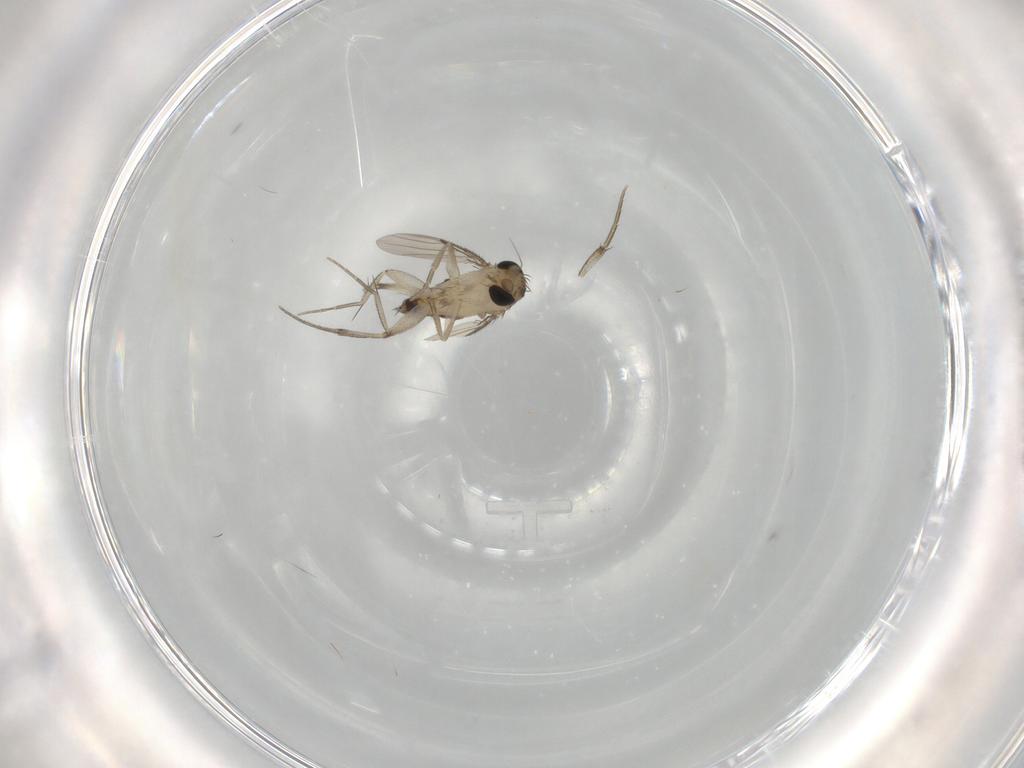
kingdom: Animalia
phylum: Arthropoda
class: Insecta
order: Diptera
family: Phoridae
